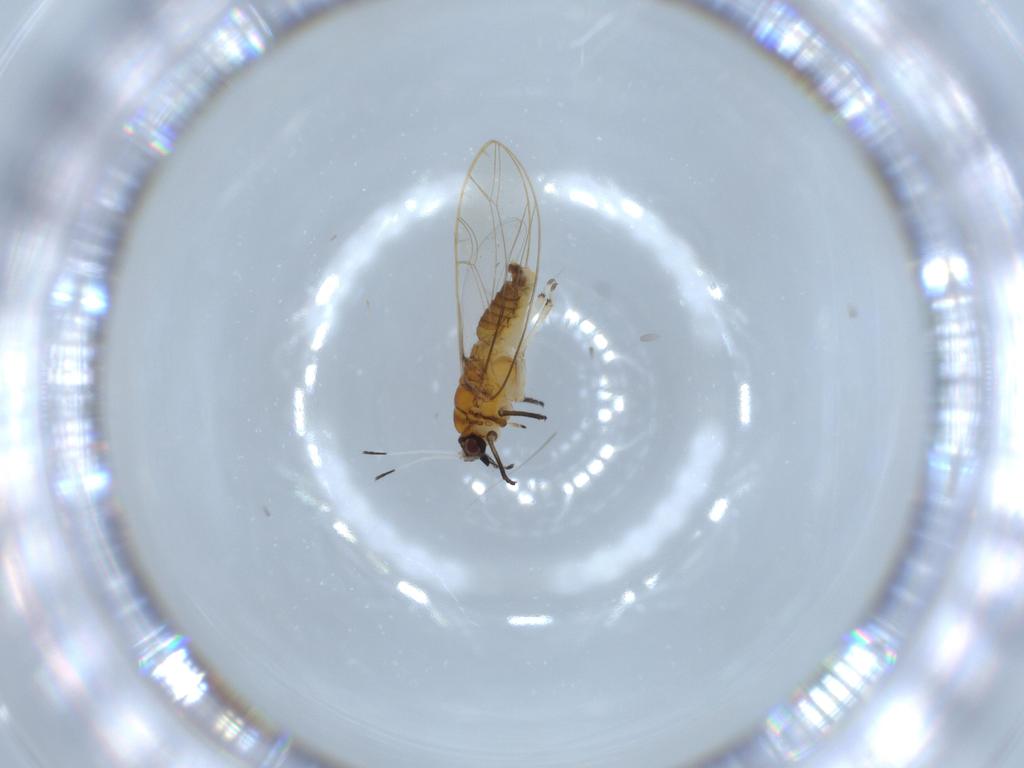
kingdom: Animalia
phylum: Arthropoda
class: Insecta
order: Hemiptera
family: Triozidae
